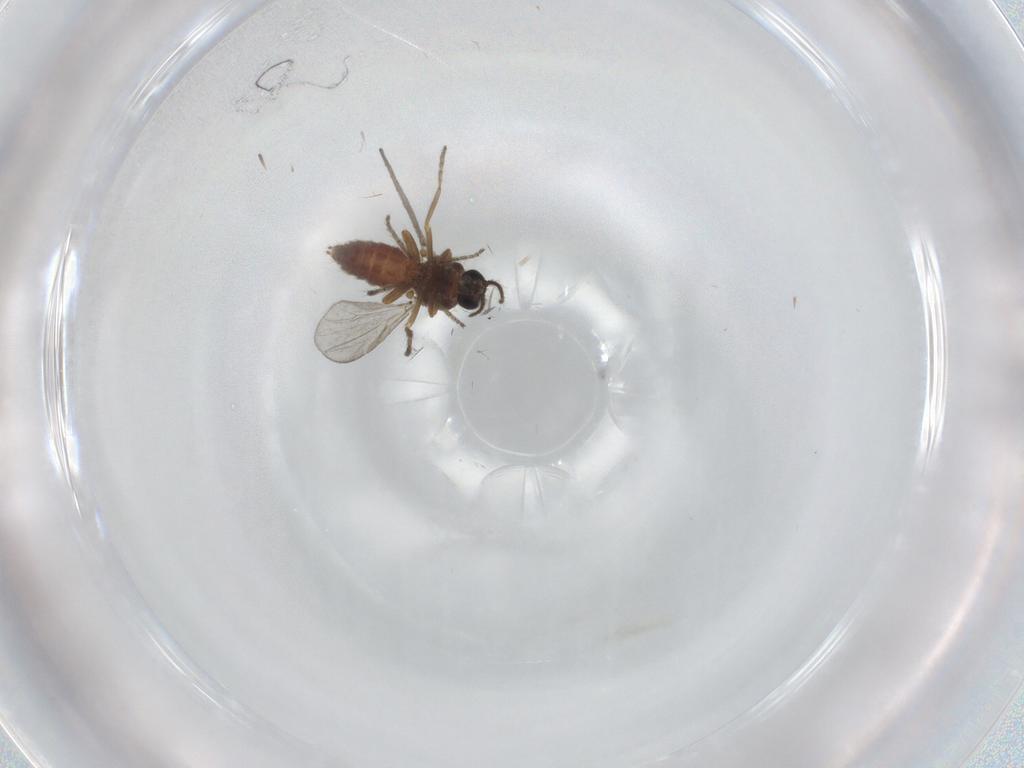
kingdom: Animalia
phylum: Arthropoda
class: Insecta
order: Diptera
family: Ceratopogonidae
